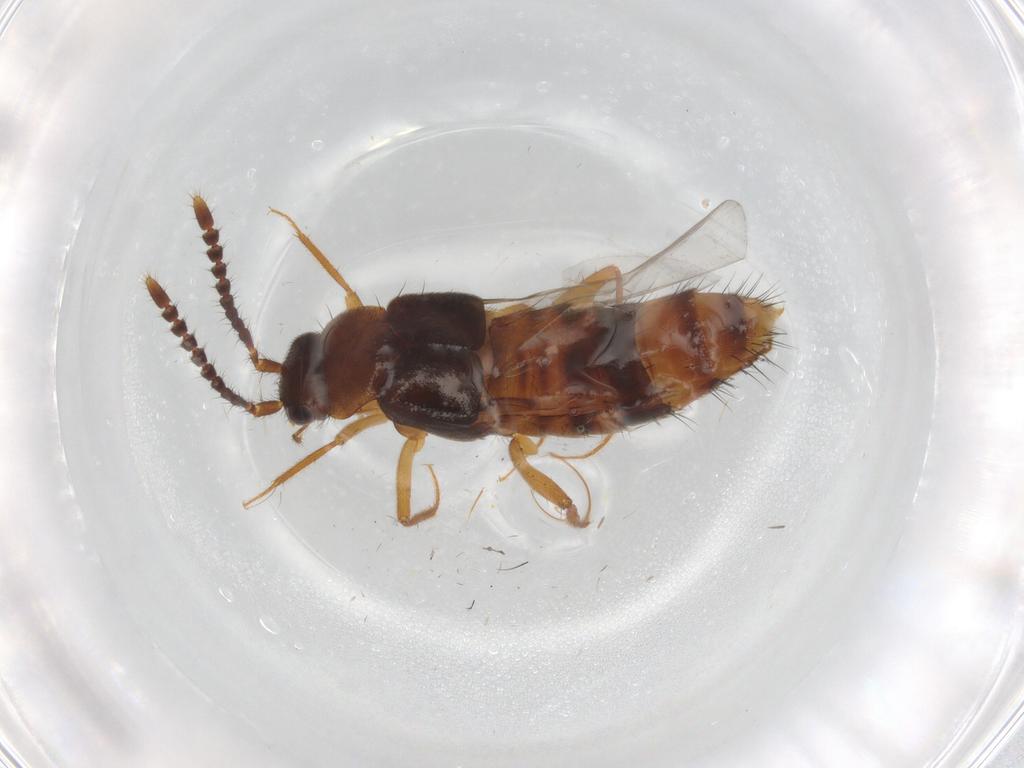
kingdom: Animalia
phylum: Arthropoda
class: Insecta
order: Coleoptera
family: Staphylinidae
